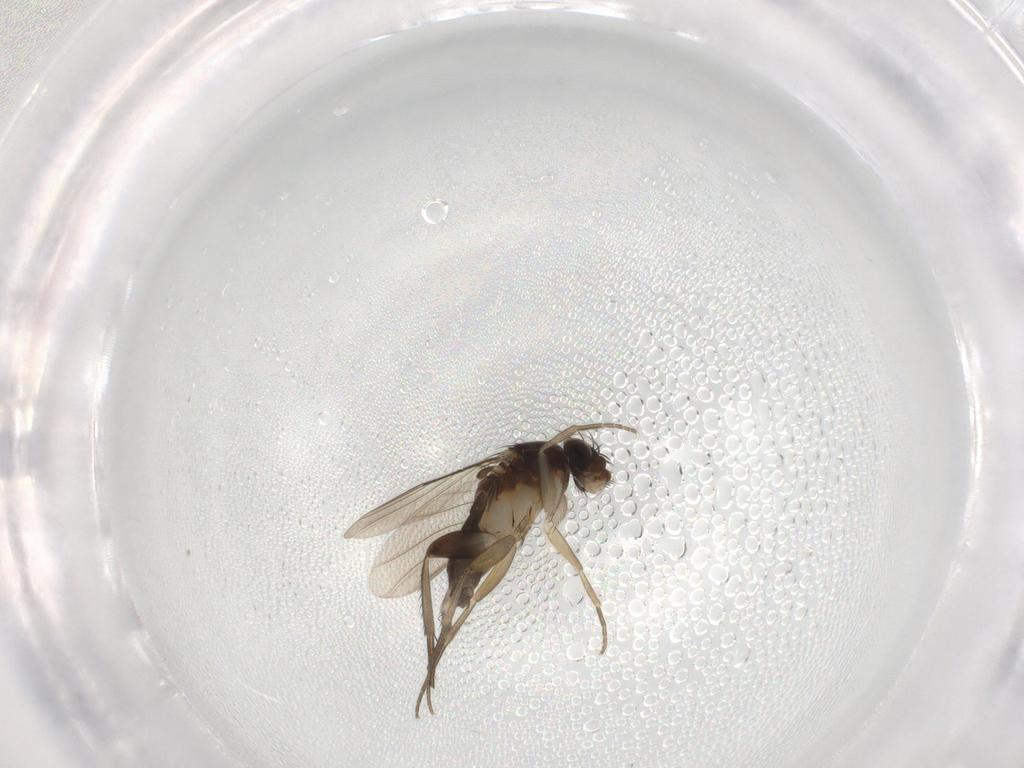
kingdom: Animalia
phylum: Arthropoda
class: Insecta
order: Diptera
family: Phoridae
